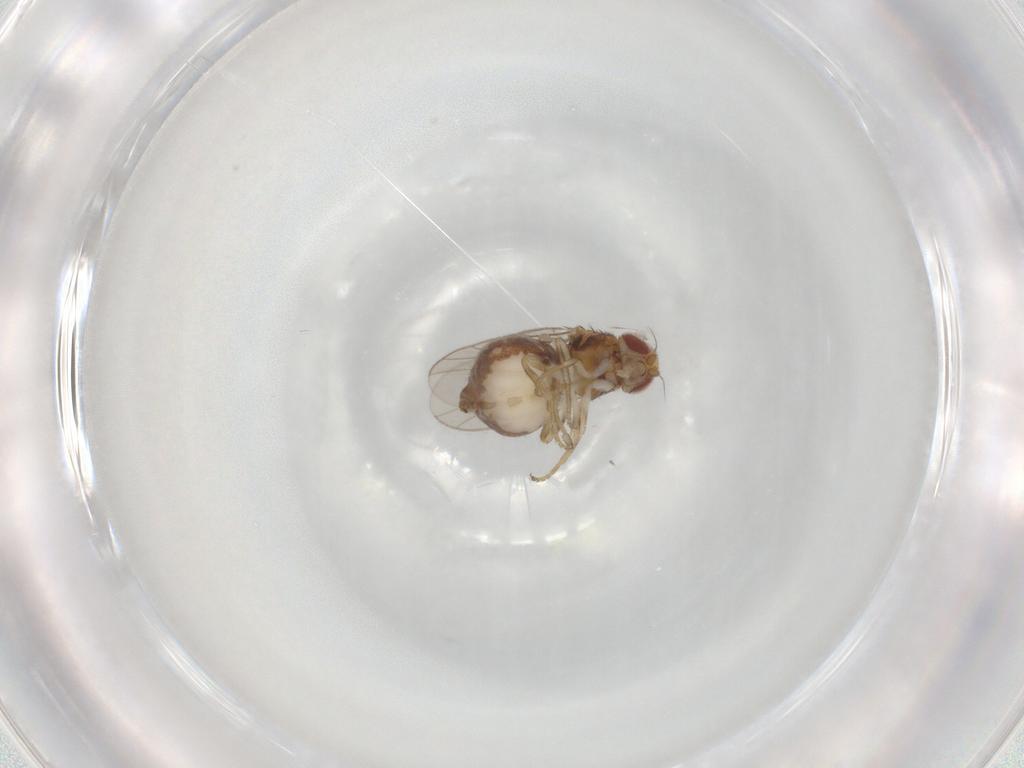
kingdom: Animalia
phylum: Arthropoda
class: Insecta
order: Diptera
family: Chloropidae
